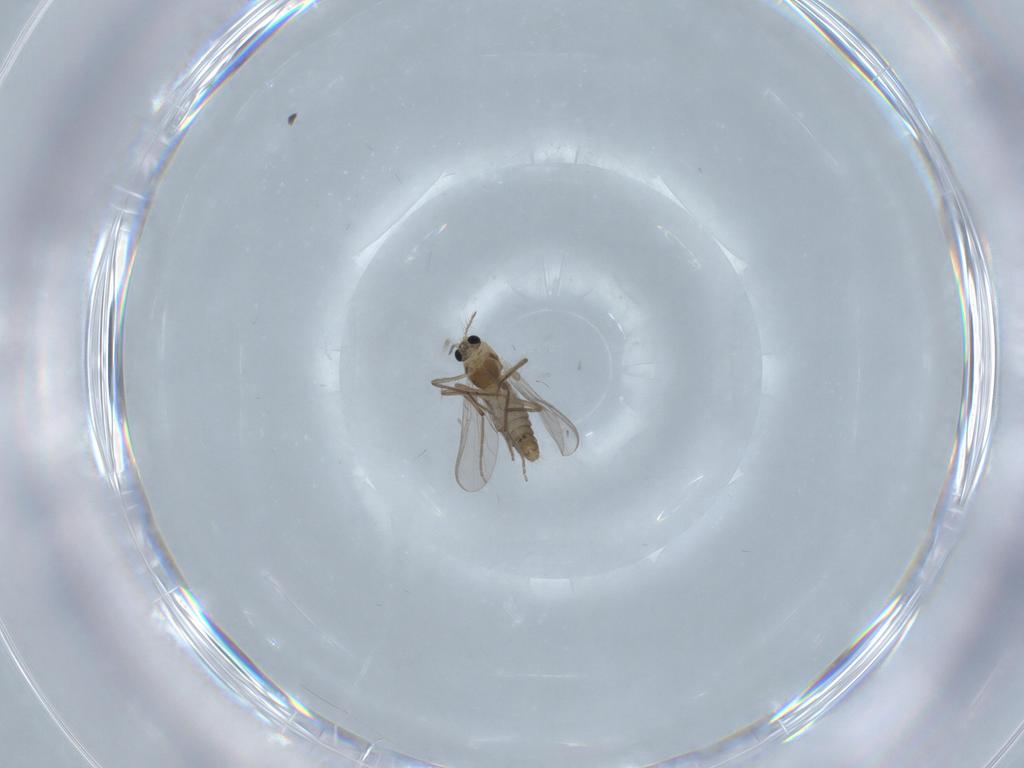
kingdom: Animalia
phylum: Arthropoda
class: Insecta
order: Diptera
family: Chironomidae
